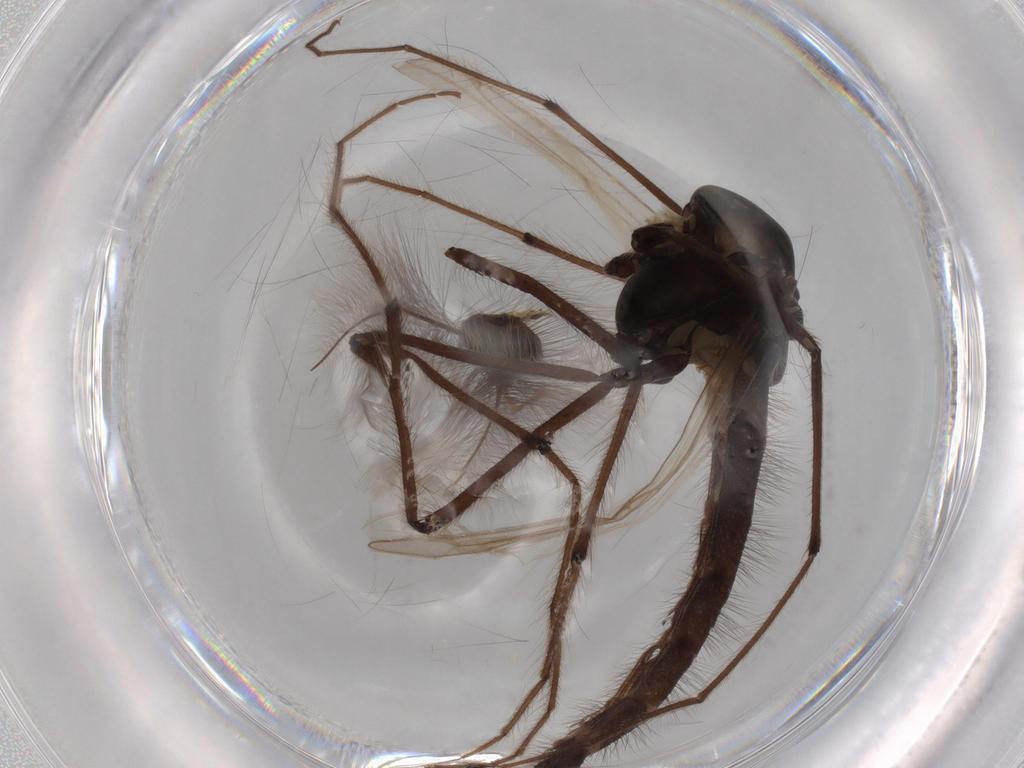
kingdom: Animalia
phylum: Arthropoda
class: Insecta
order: Diptera
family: Chironomidae
